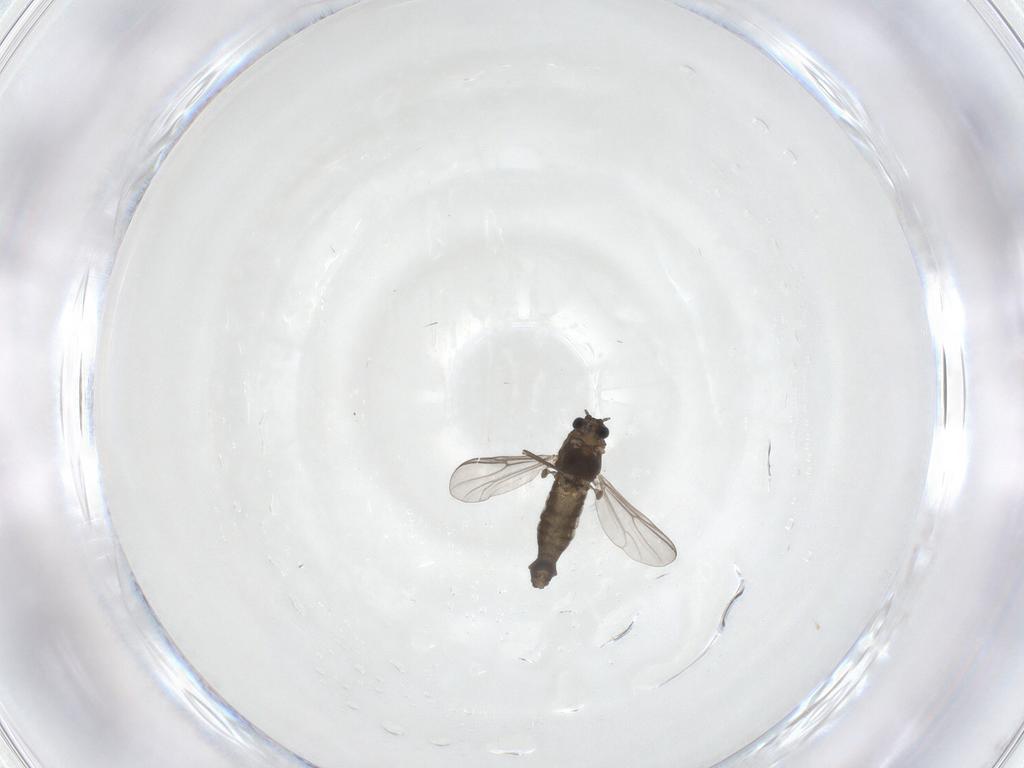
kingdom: Animalia
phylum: Arthropoda
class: Insecta
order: Diptera
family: Chironomidae
